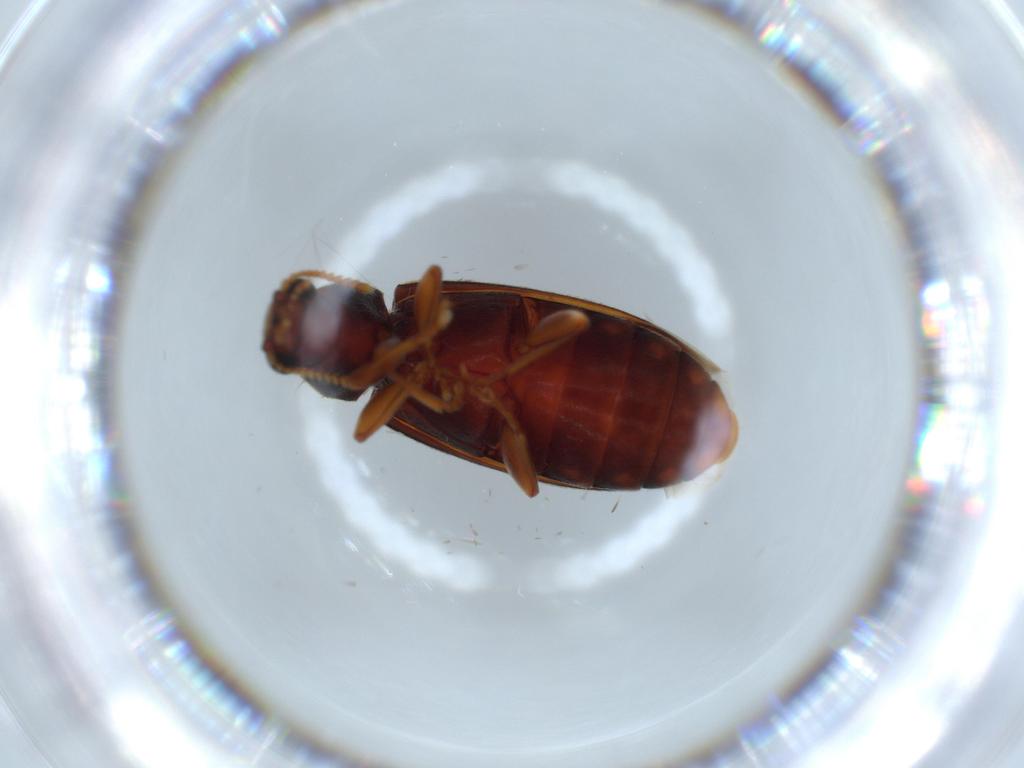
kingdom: Animalia
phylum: Arthropoda
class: Insecta
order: Coleoptera
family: Mycteridae
